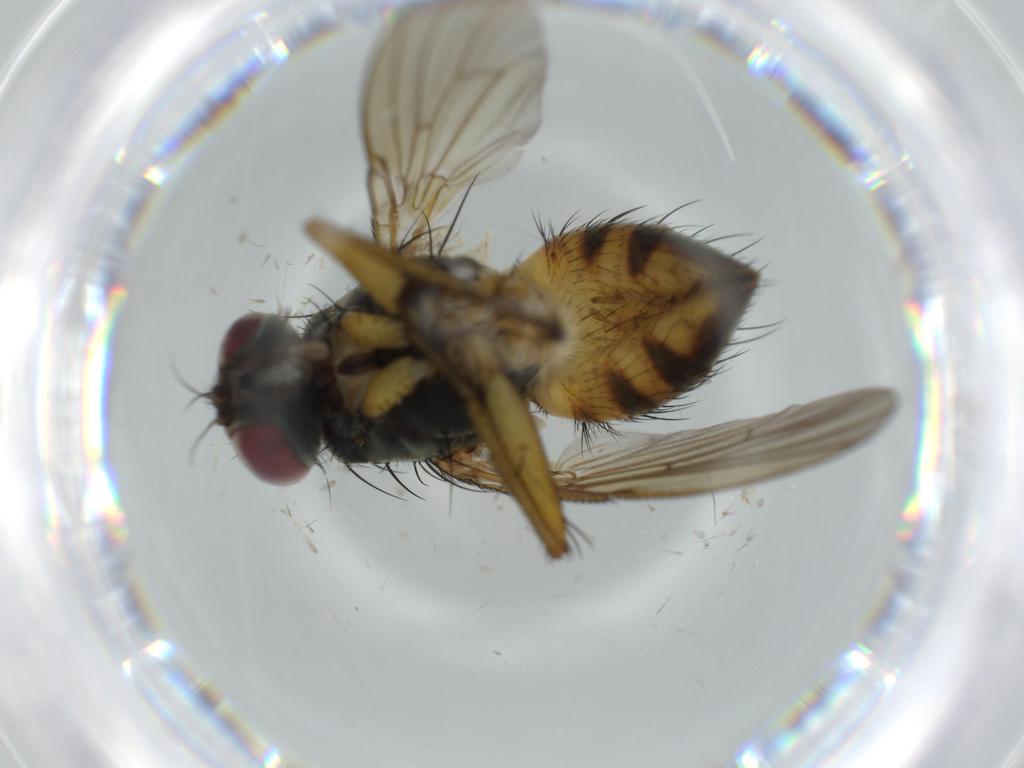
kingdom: Animalia
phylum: Arthropoda
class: Insecta
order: Diptera
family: Muscidae
